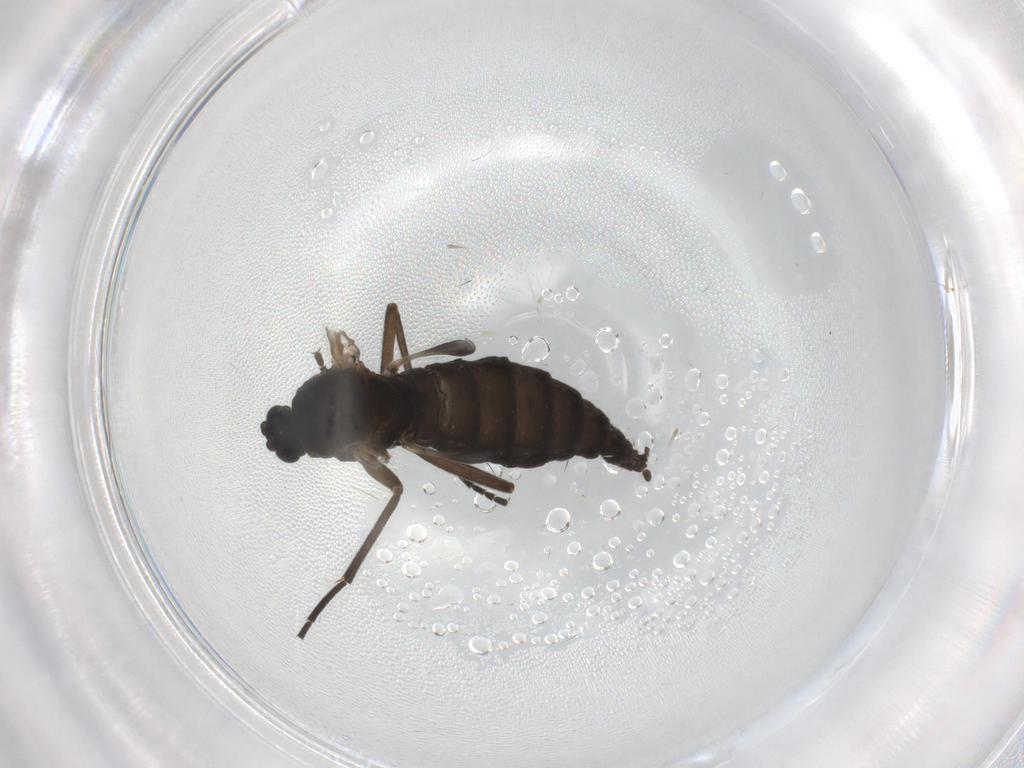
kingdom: Animalia
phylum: Arthropoda
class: Insecta
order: Diptera
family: Sciaridae
